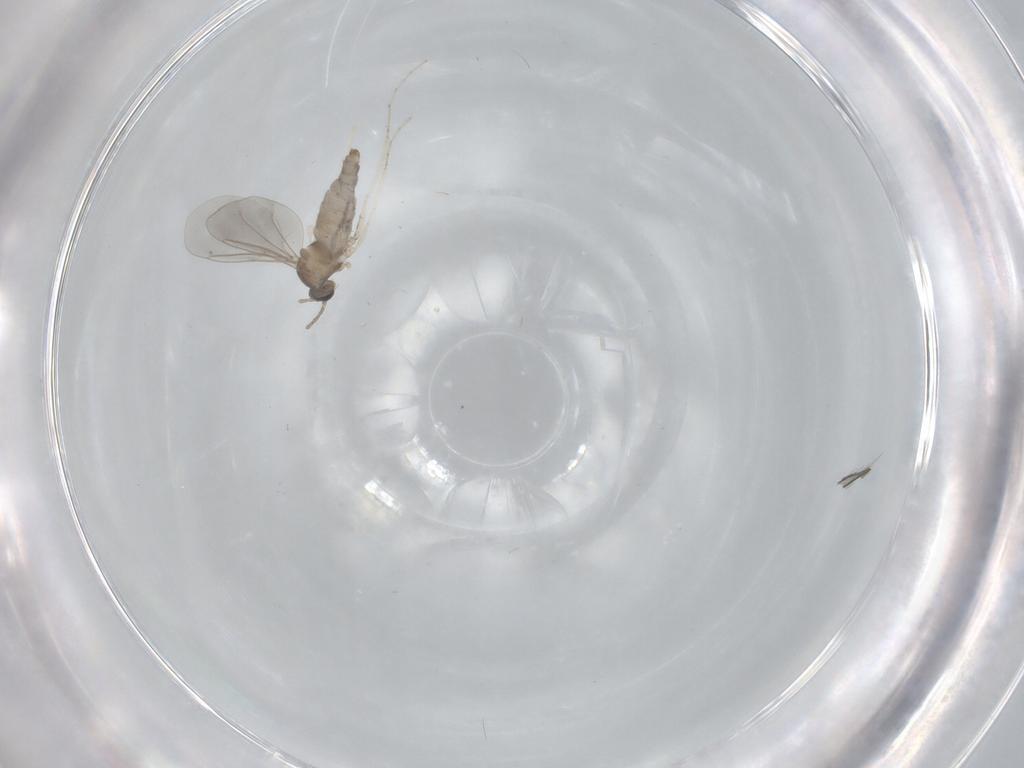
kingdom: Animalia
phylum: Arthropoda
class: Insecta
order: Diptera
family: Cecidomyiidae
